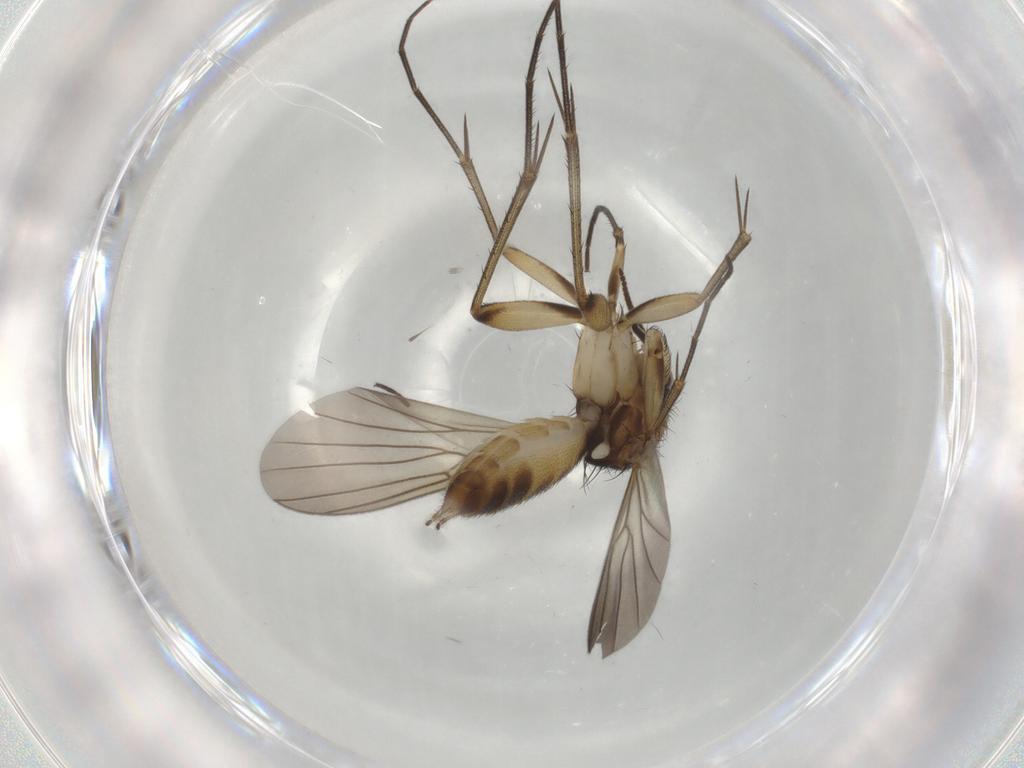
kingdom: Animalia
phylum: Arthropoda
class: Insecta
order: Diptera
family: Mycetophilidae
